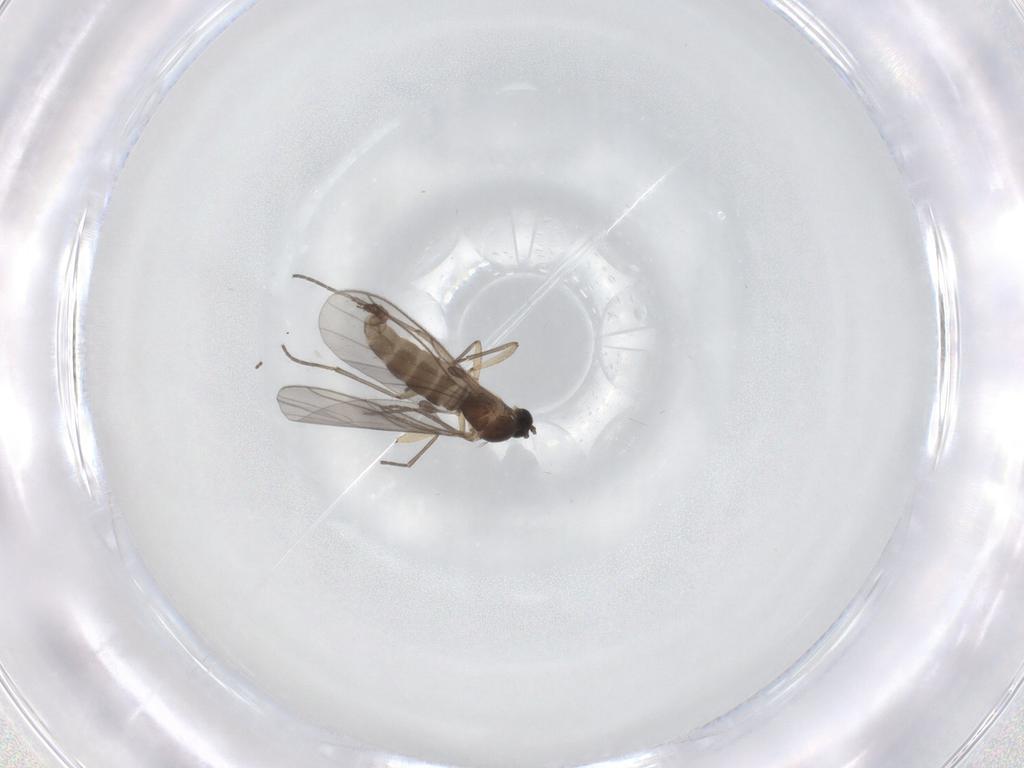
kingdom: Animalia
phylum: Arthropoda
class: Insecta
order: Diptera
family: Sciaridae
